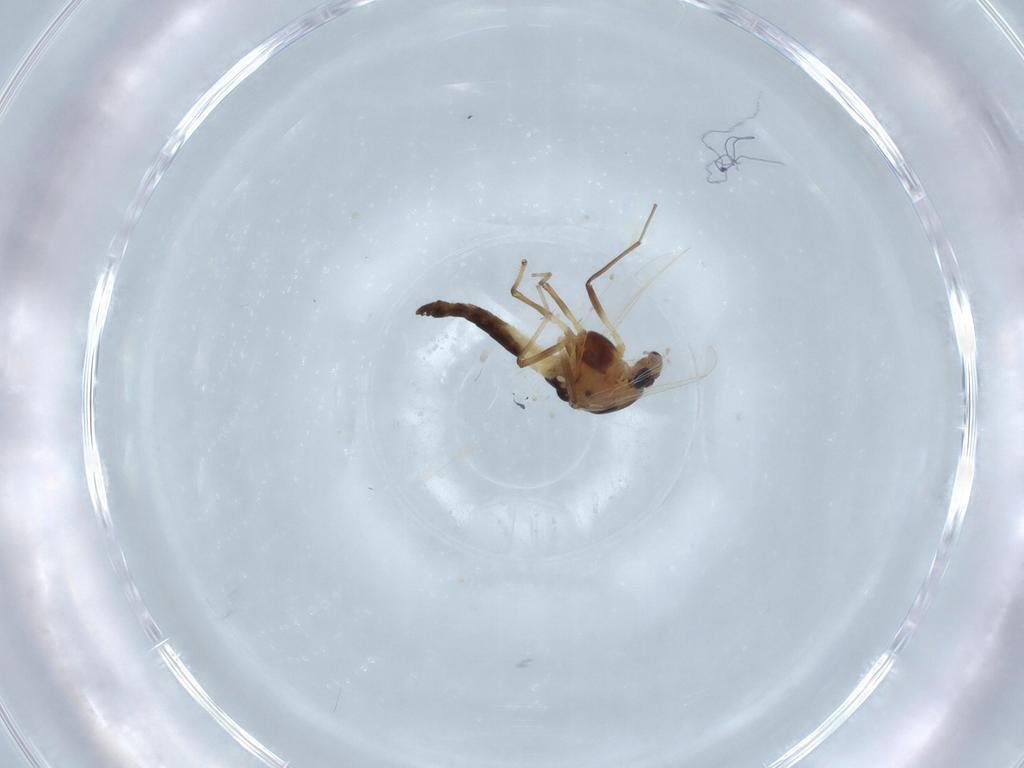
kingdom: Animalia
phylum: Arthropoda
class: Insecta
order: Diptera
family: Chironomidae
